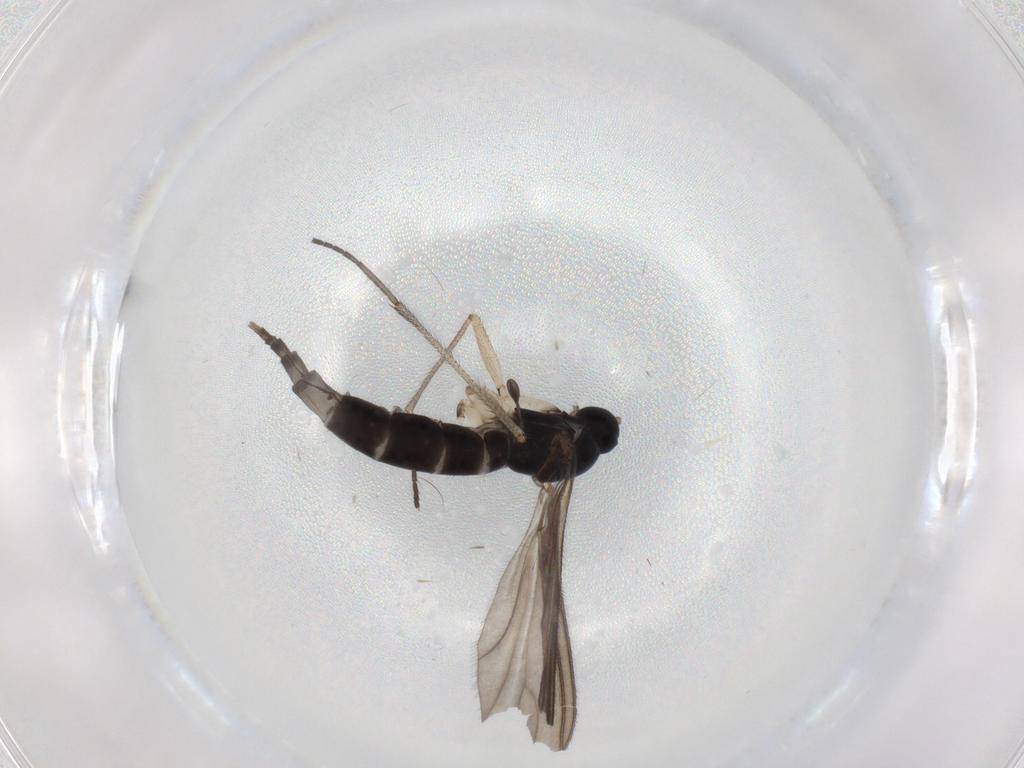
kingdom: Animalia
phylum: Arthropoda
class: Insecta
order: Diptera
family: Sciaridae
